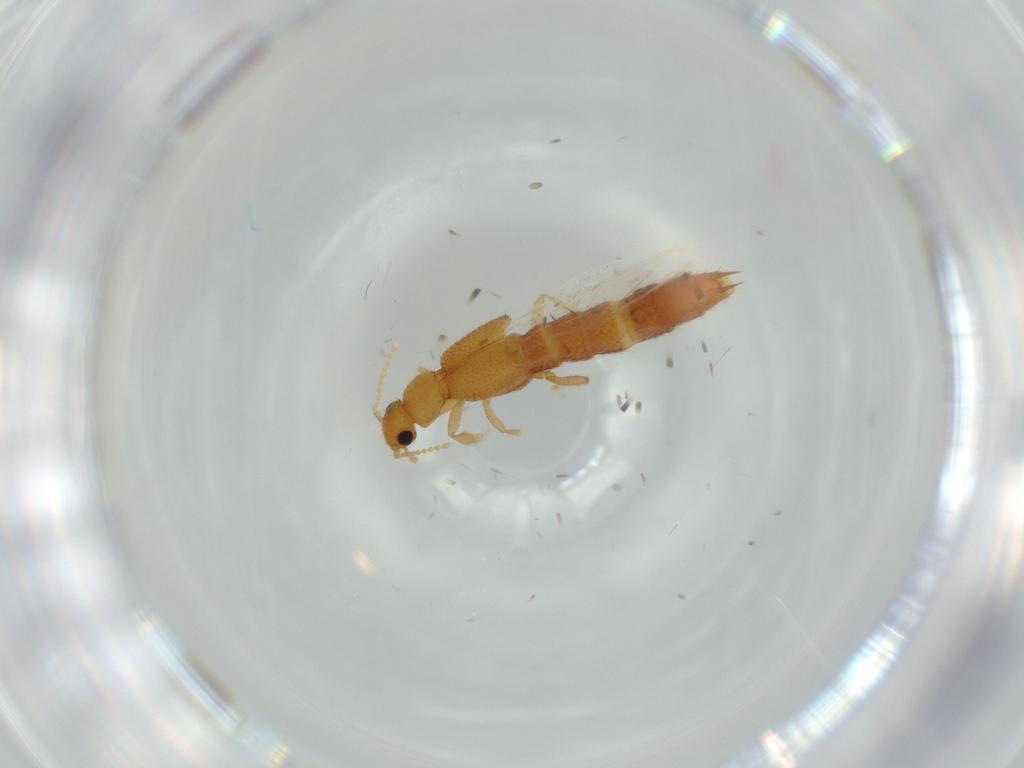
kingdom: Animalia
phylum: Arthropoda
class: Insecta
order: Coleoptera
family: Staphylinidae
